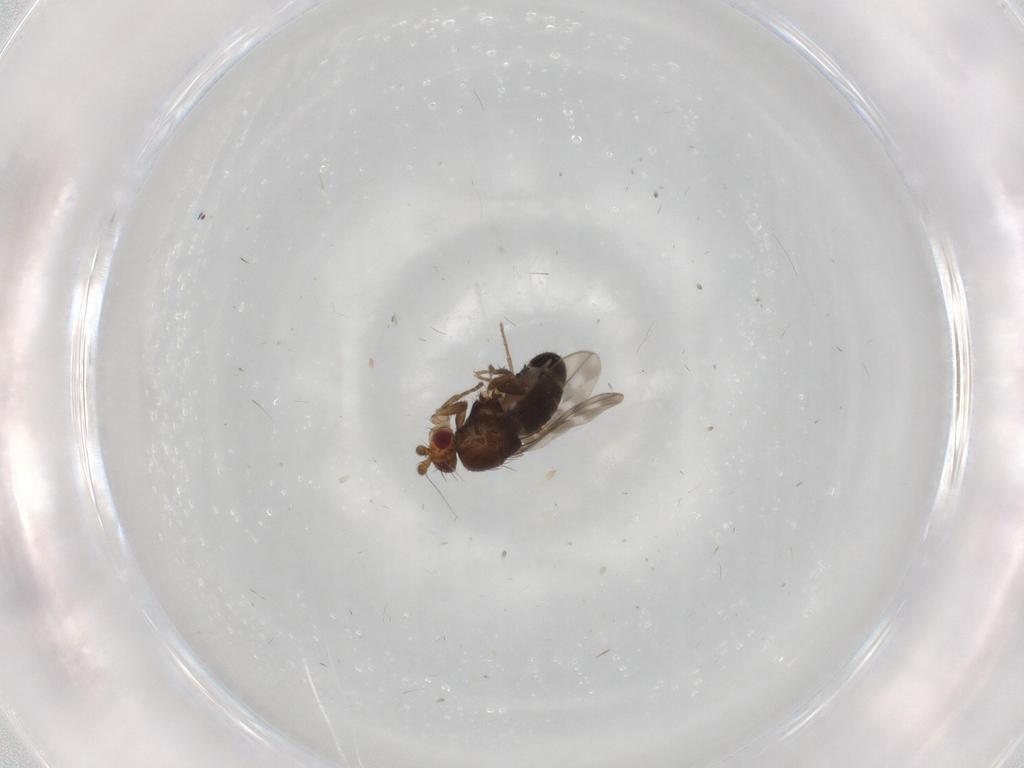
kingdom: Animalia
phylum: Arthropoda
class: Insecta
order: Diptera
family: Sphaeroceridae
